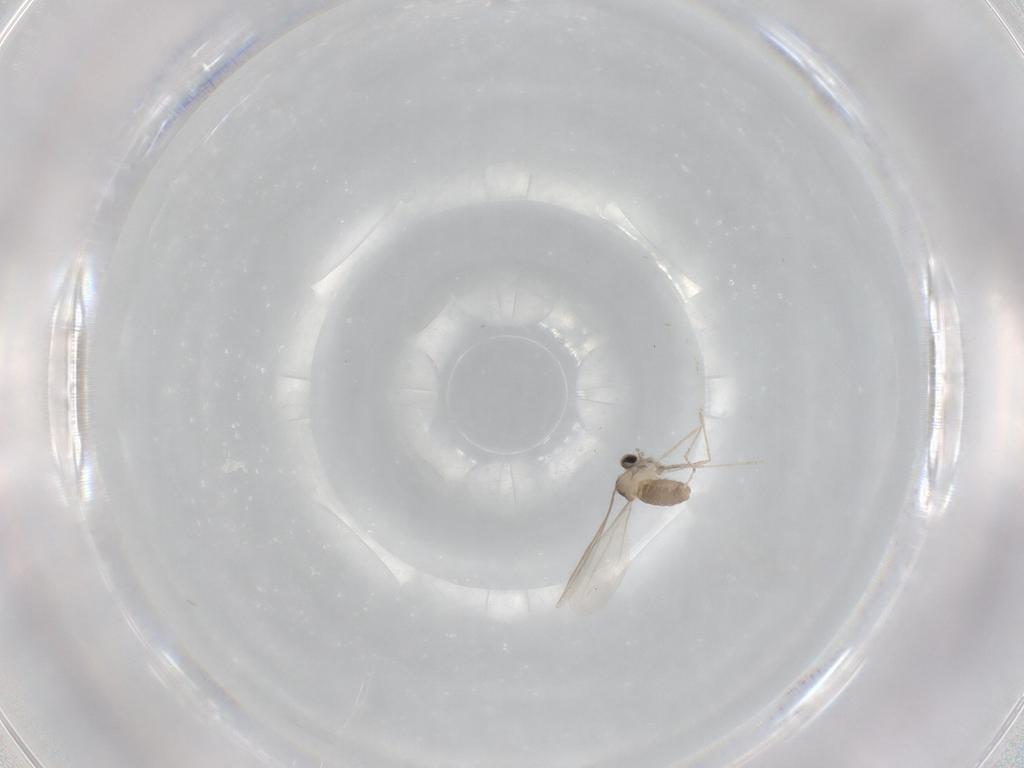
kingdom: Animalia
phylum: Arthropoda
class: Insecta
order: Diptera
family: Cecidomyiidae
